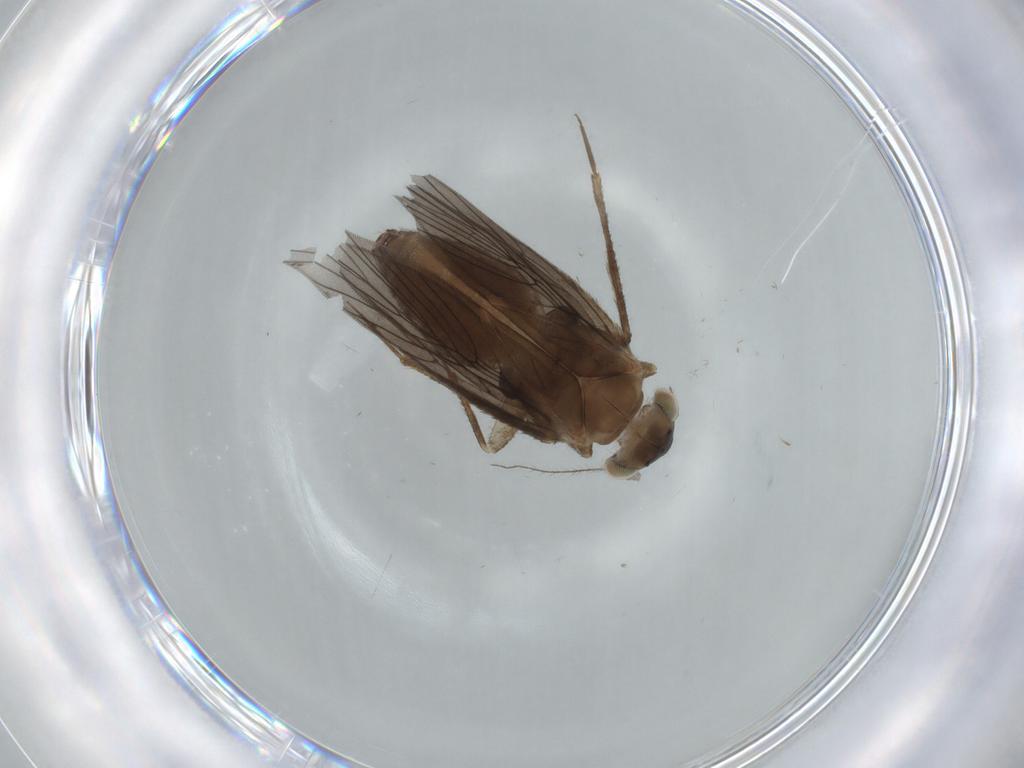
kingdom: Animalia
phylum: Arthropoda
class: Insecta
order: Psocodea
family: Lepidopsocidae
